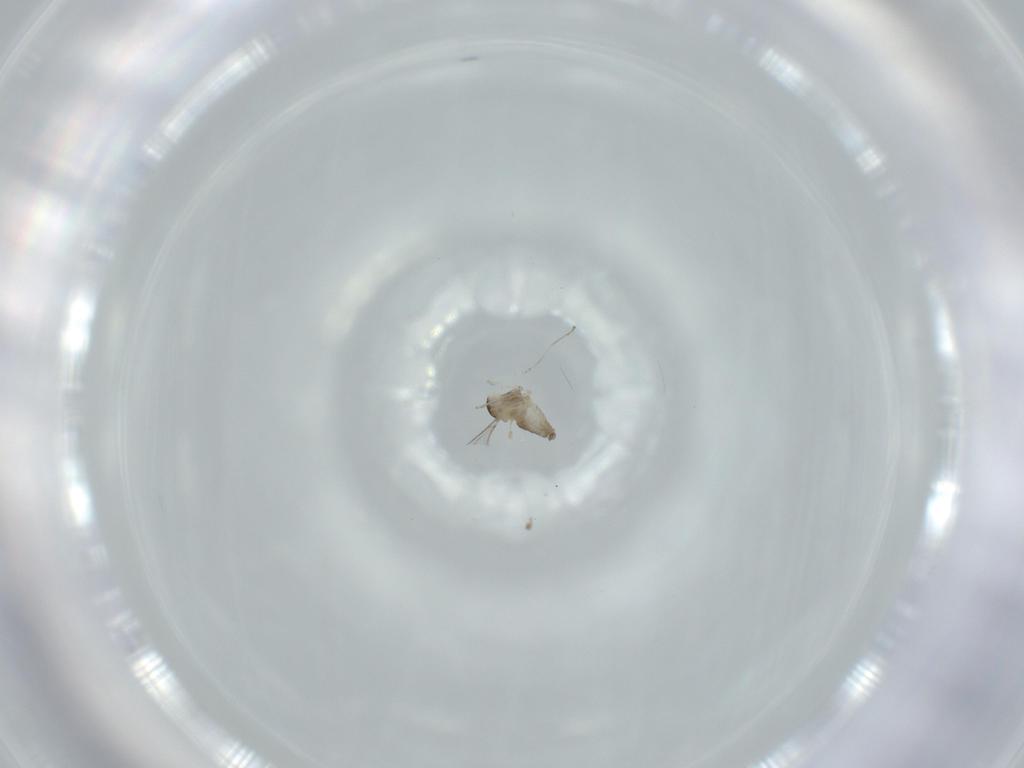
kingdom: Animalia
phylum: Arthropoda
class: Insecta
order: Diptera
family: Cecidomyiidae
